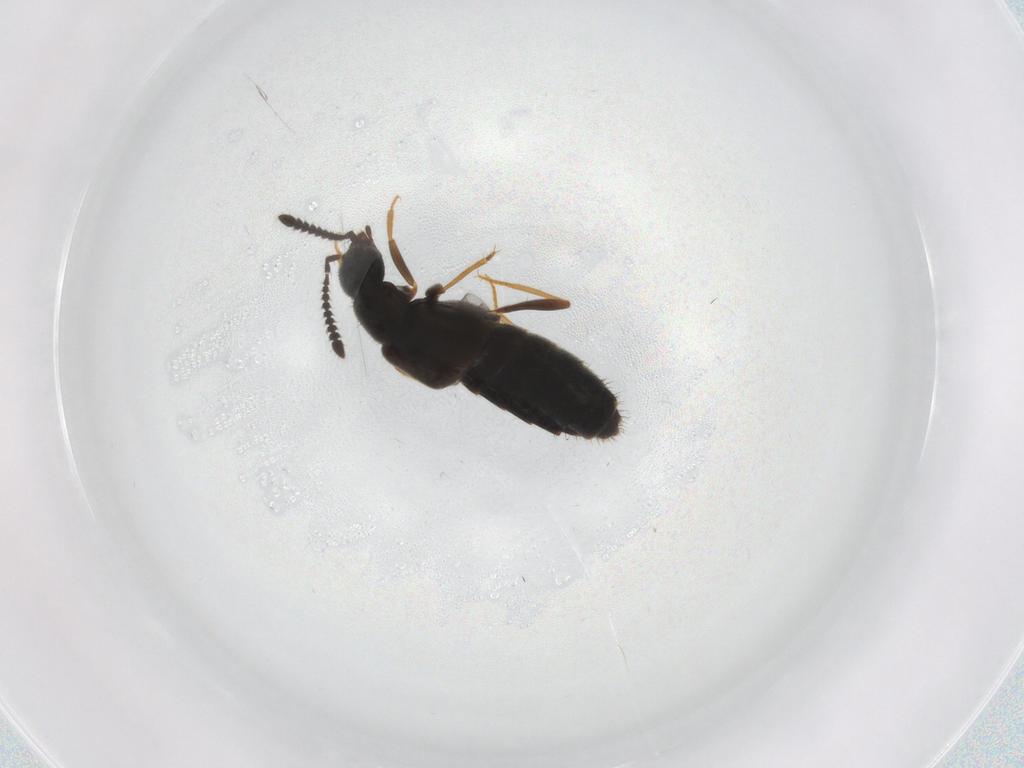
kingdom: Animalia
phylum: Arthropoda
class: Insecta
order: Coleoptera
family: Staphylinidae
